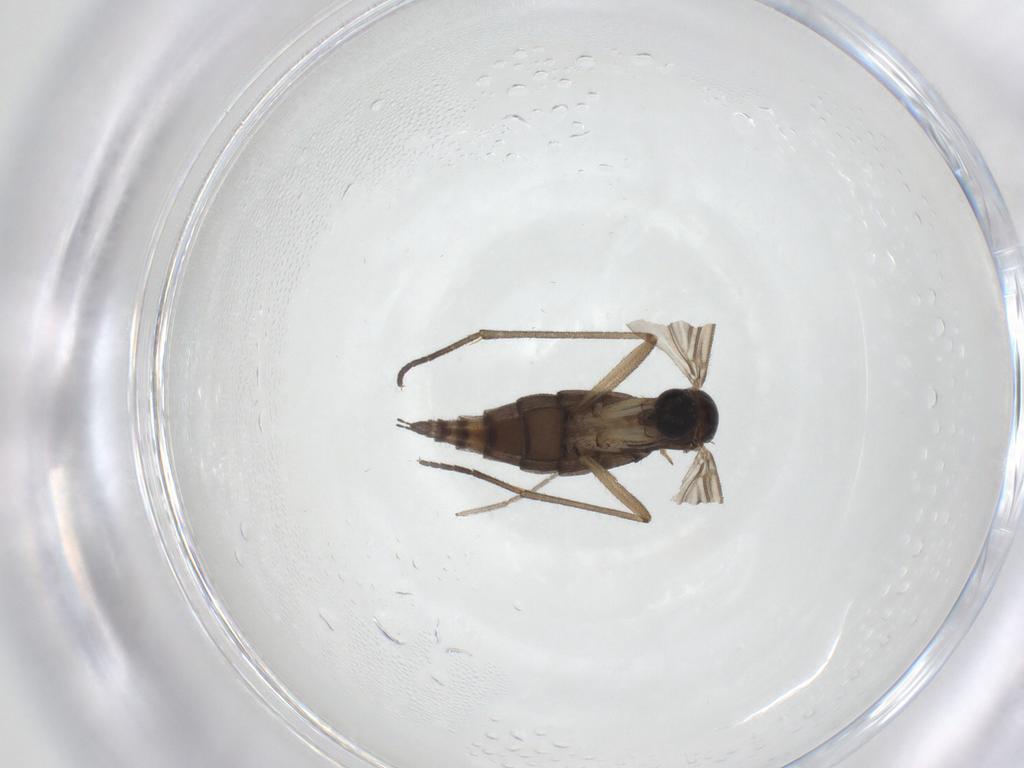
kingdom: Animalia
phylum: Arthropoda
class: Insecta
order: Diptera
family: Sciaridae
